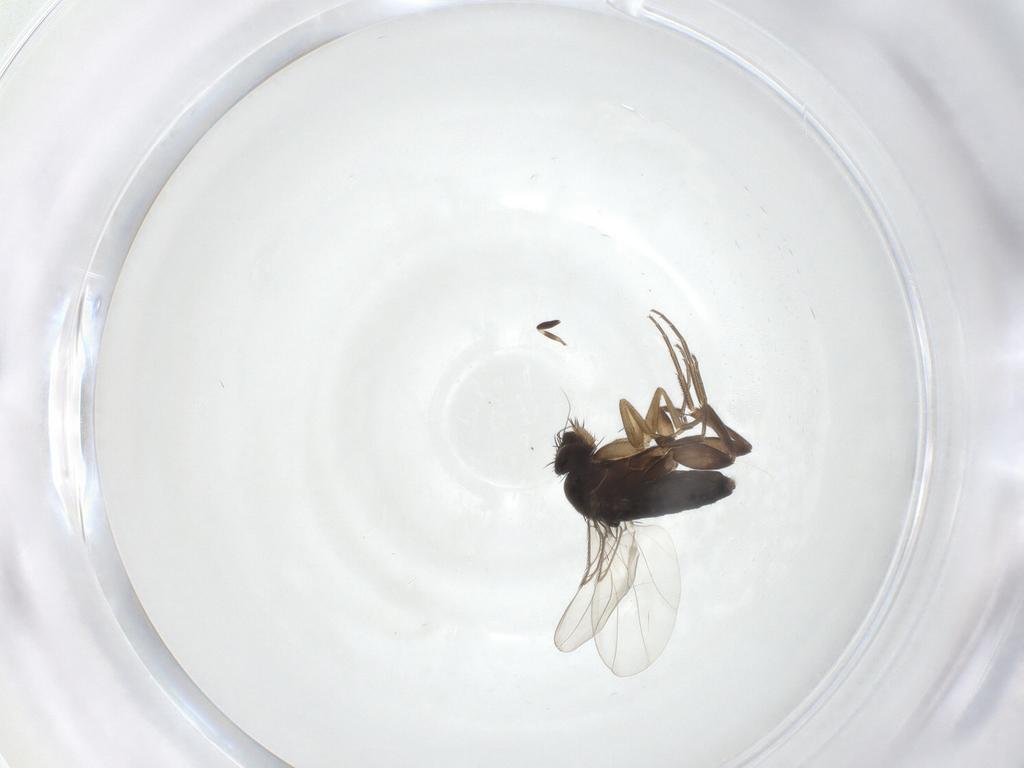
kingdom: Animalia
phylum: Arthropoda
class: Insecta
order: Diptera
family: Phoridae
